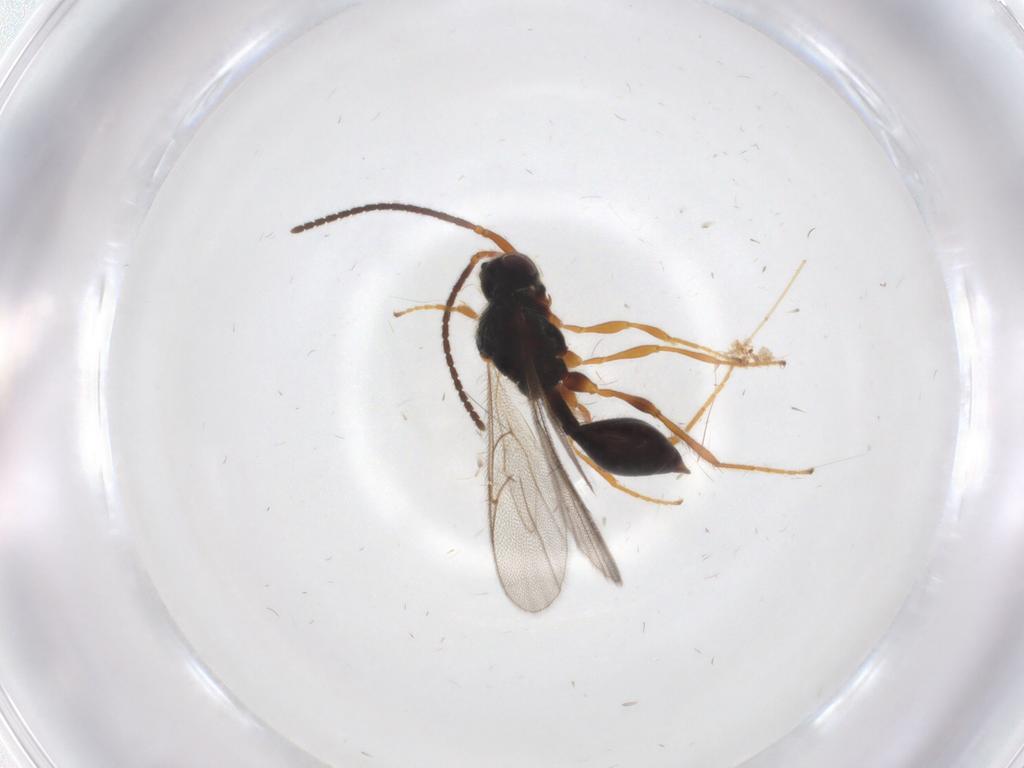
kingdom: Animalia
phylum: Arthropoda
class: Insecta
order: Hymenoptera
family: Diapriidae
